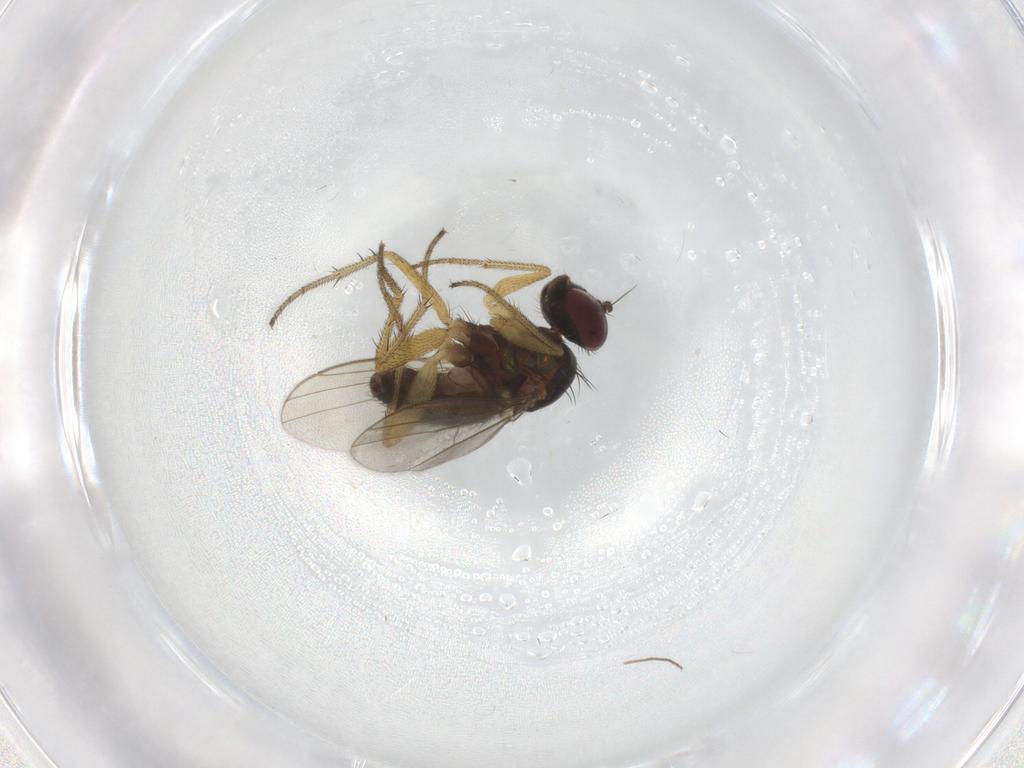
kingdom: Animalia
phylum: Arthropoda
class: Insecta
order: Diptera
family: Dolichopodidae
